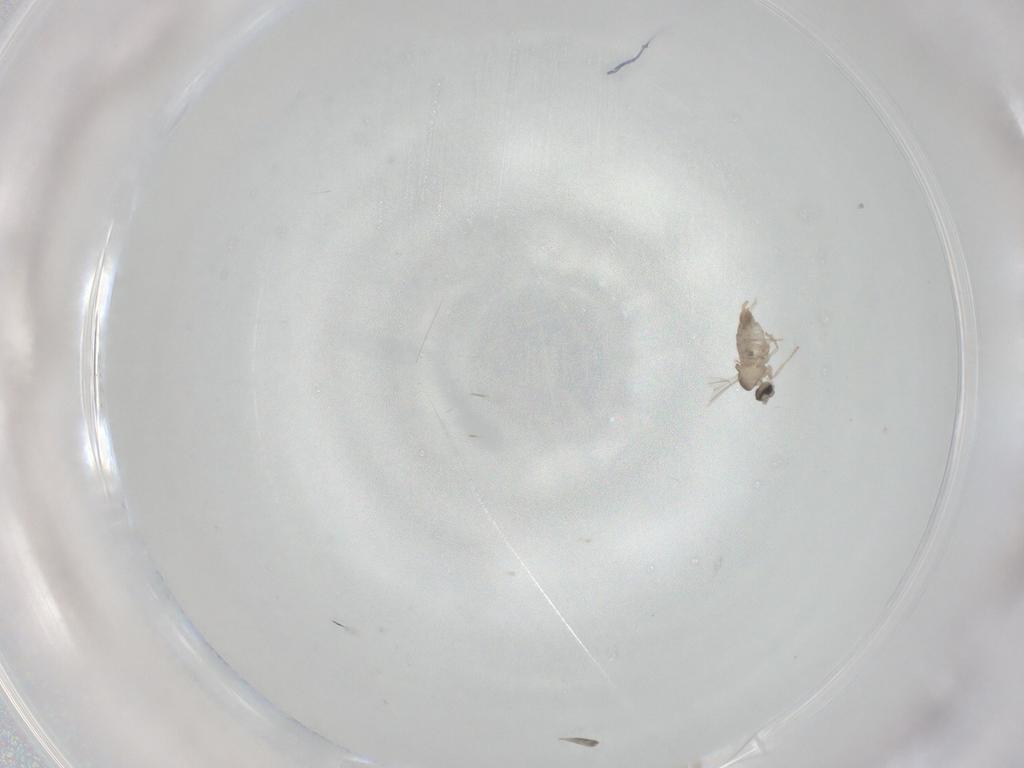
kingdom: Animalia
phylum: Arthropoda
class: Insecta
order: Diptera
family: Cecidomyiidae
